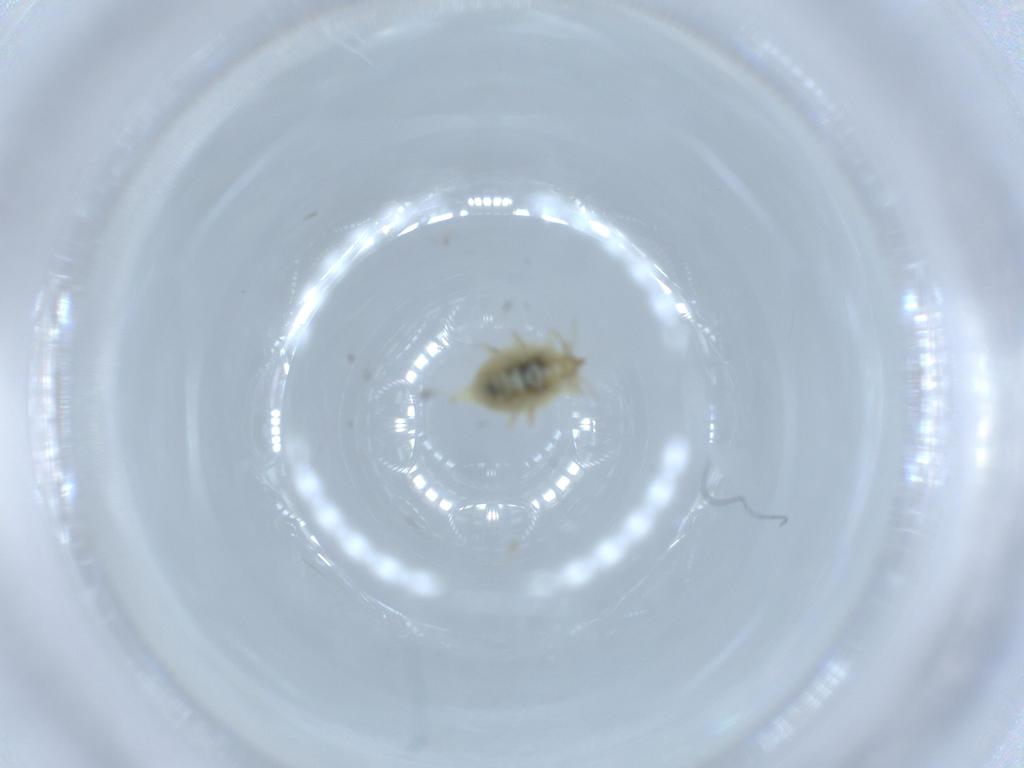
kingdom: Animalia
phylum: Arthropoda
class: Insecta
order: Neuroptera
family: Coniopterygidae
